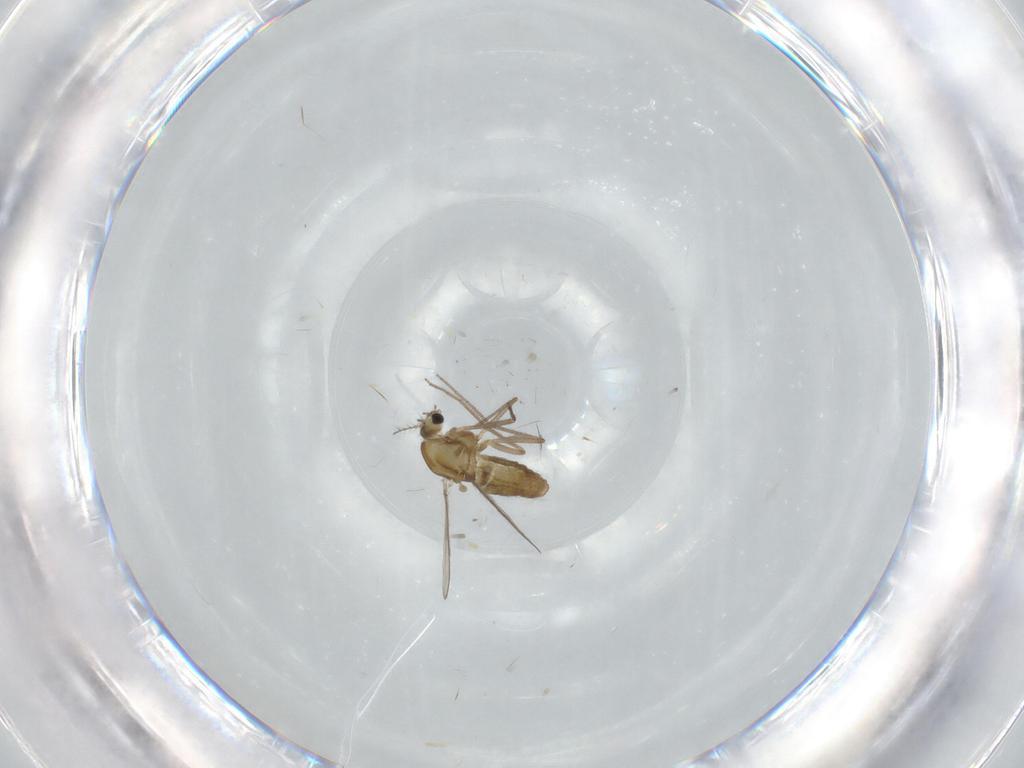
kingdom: Animalia
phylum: Arthropoda
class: Insecta
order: Diptera
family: Chironomidae
